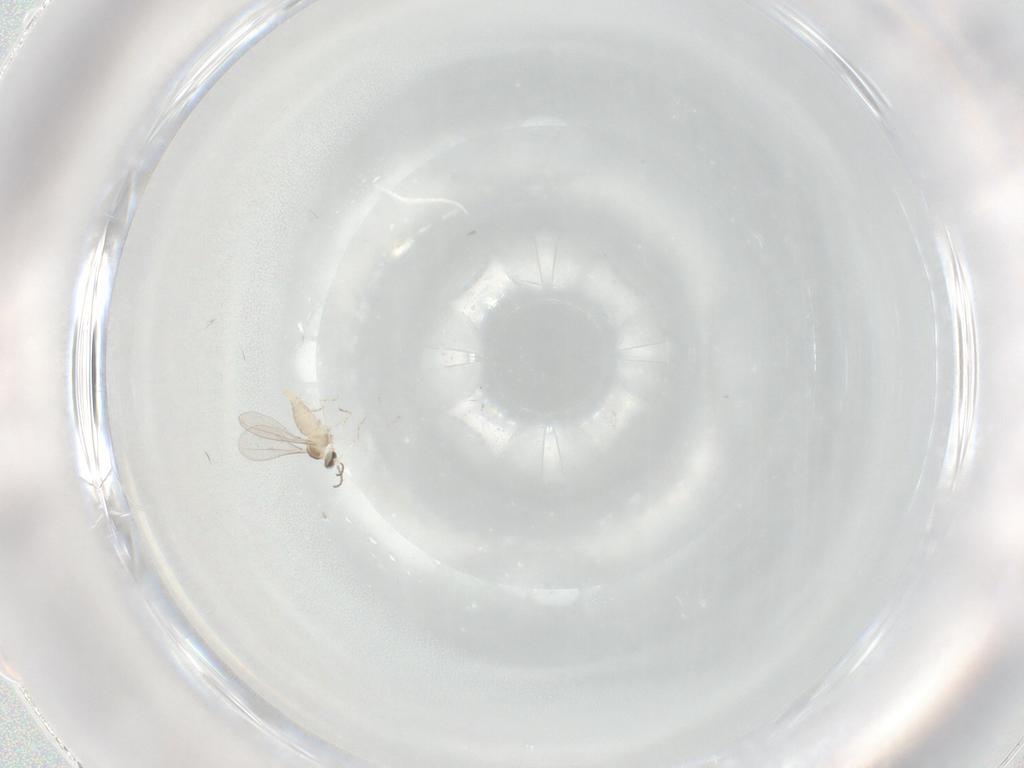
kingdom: Animalia
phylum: Arthropoda
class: Insecta
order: Diptera
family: Cecidomyiidae
